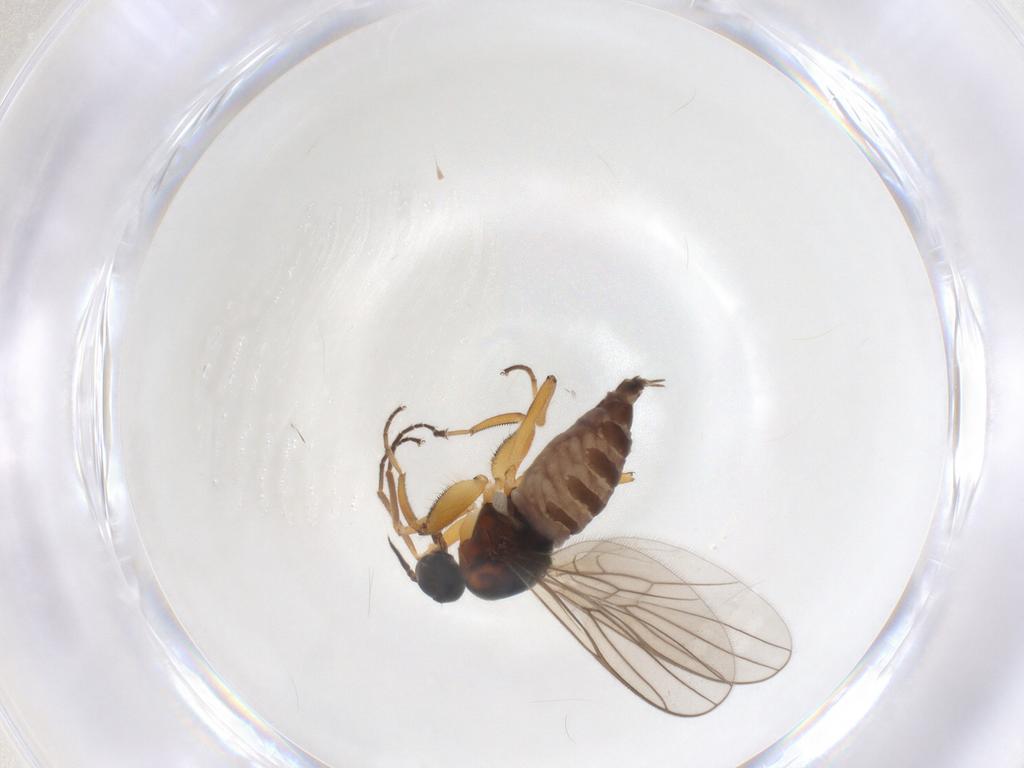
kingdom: Animalia
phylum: Arthropoda
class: Insecta
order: Diptera
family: Hybotidae
